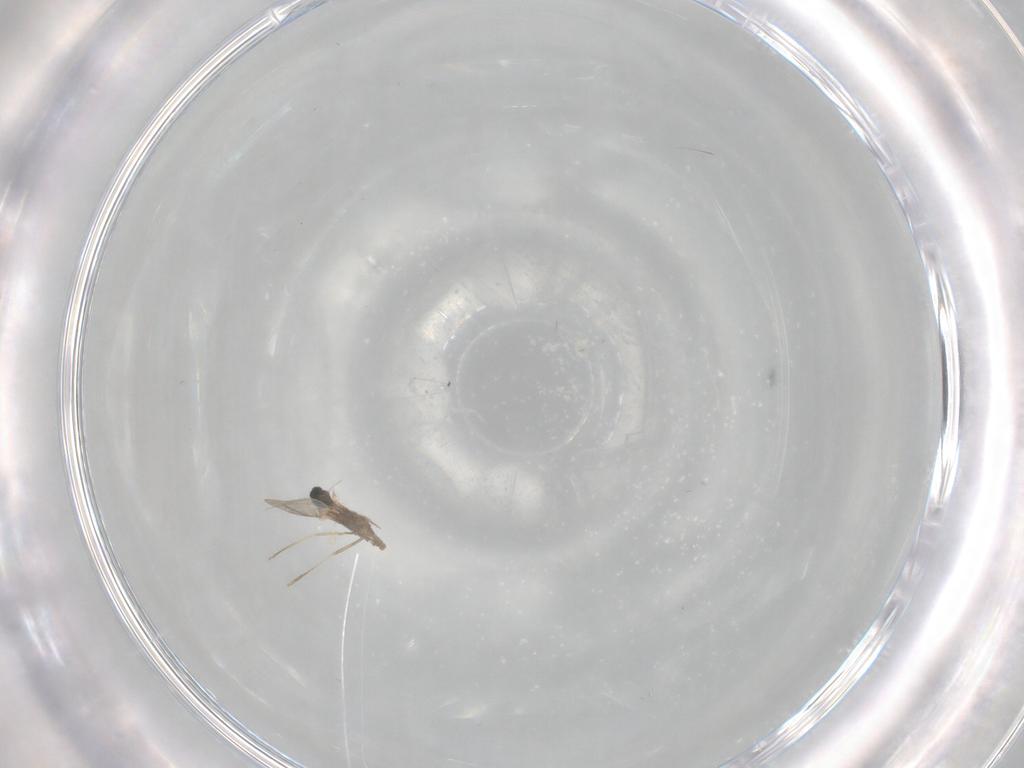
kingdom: Animalia
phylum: Arthropoda
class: Insecta
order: Diptera
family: Cecidomyiidae
